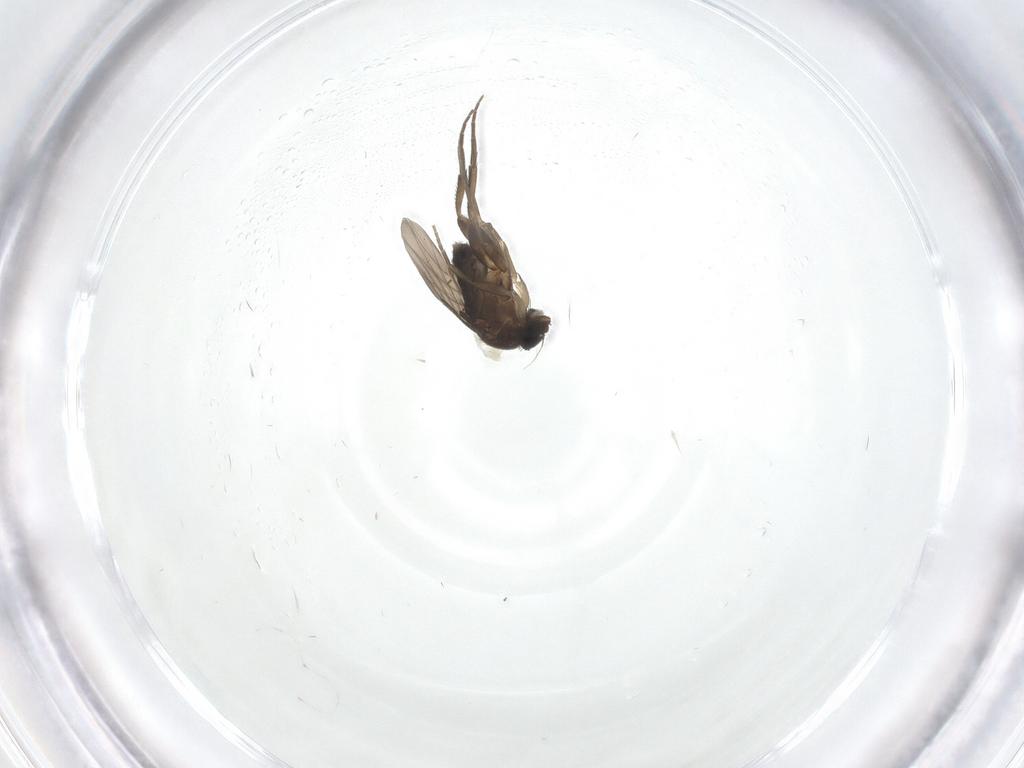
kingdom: Animalia
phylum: Arthropoda
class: Insecta
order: Diptera
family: Phoridae
